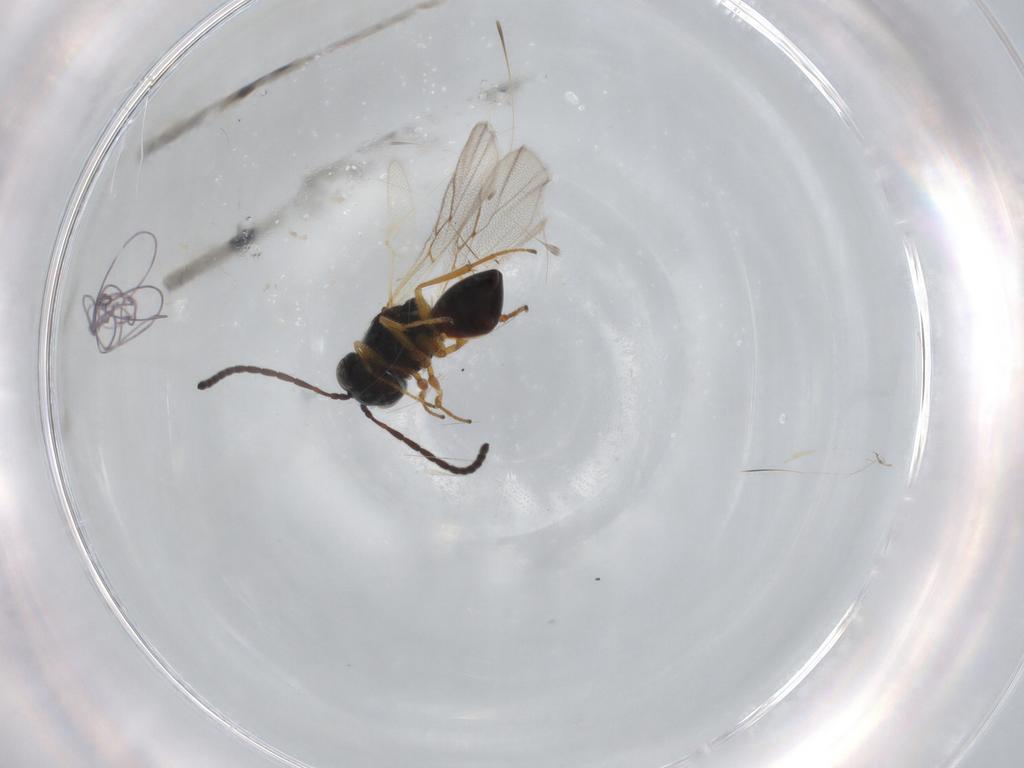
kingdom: Animalia
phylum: Arthropoda
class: Insecta
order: Hymenoptera
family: Figitidae
